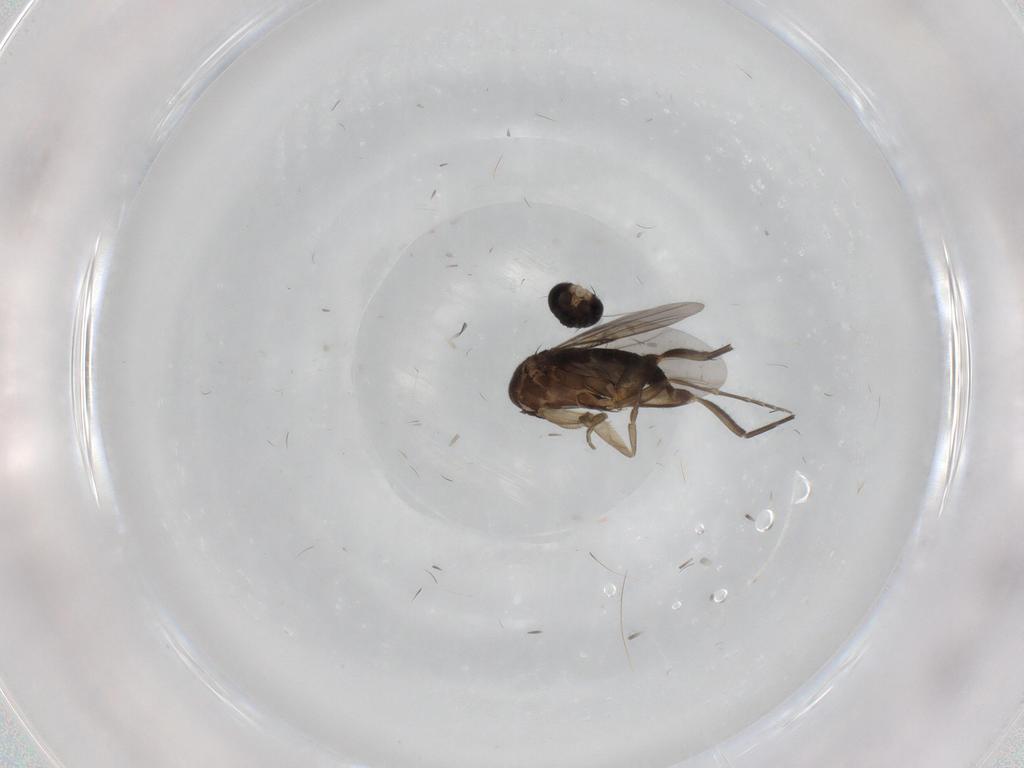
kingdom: Animalia
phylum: Arthropoda
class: Insecta
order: Diptera
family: Phoridae
